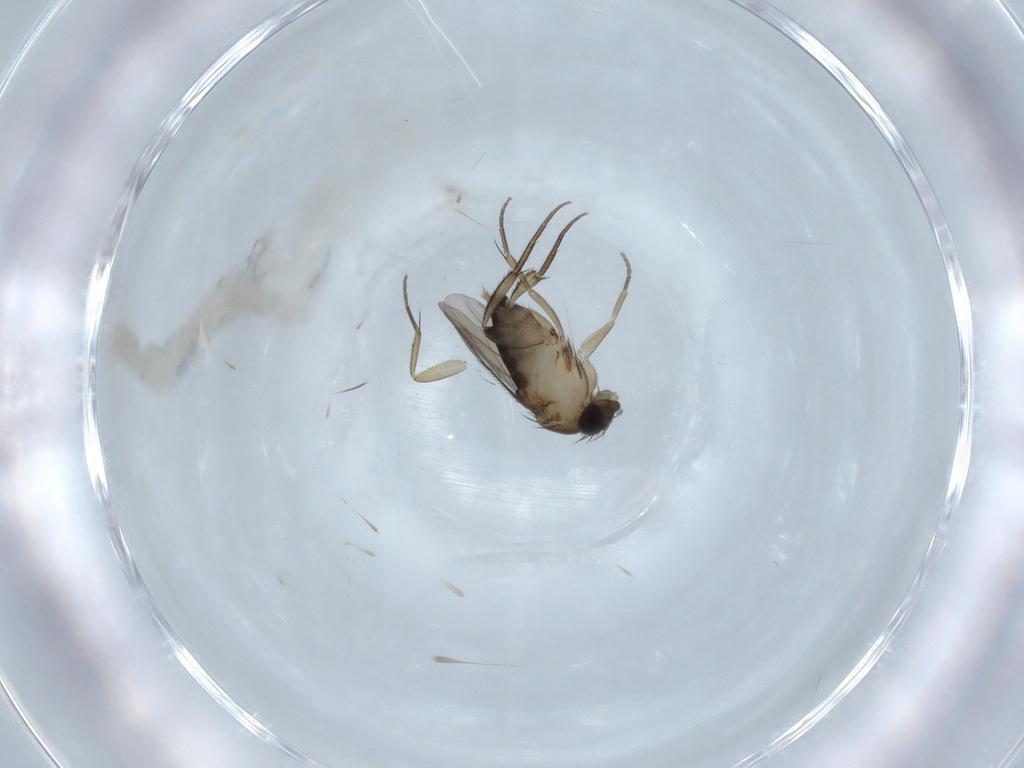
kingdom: Animalia
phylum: Arthropoda
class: Insecta
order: Diptera
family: Phoridae
